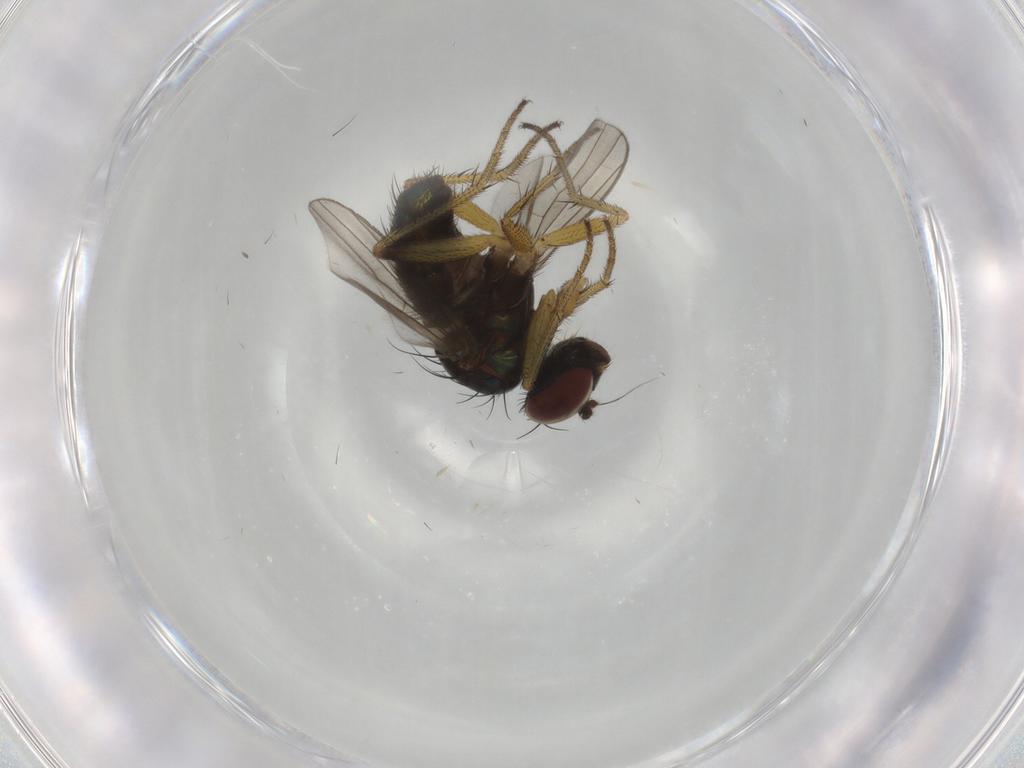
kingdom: Animalia
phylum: Arthropoda
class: Insecta
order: Diptera
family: Dolichopodidae
